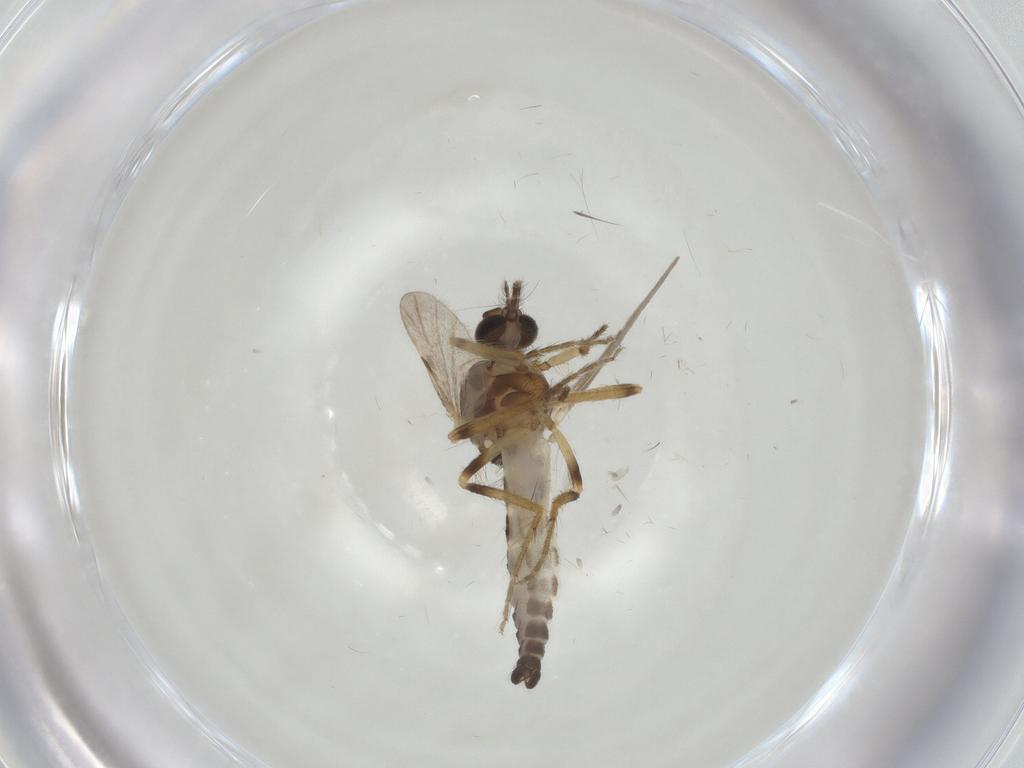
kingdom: Animalia
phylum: Arthropoda
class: Insecta
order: Diptera
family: Ceratopogonidae
